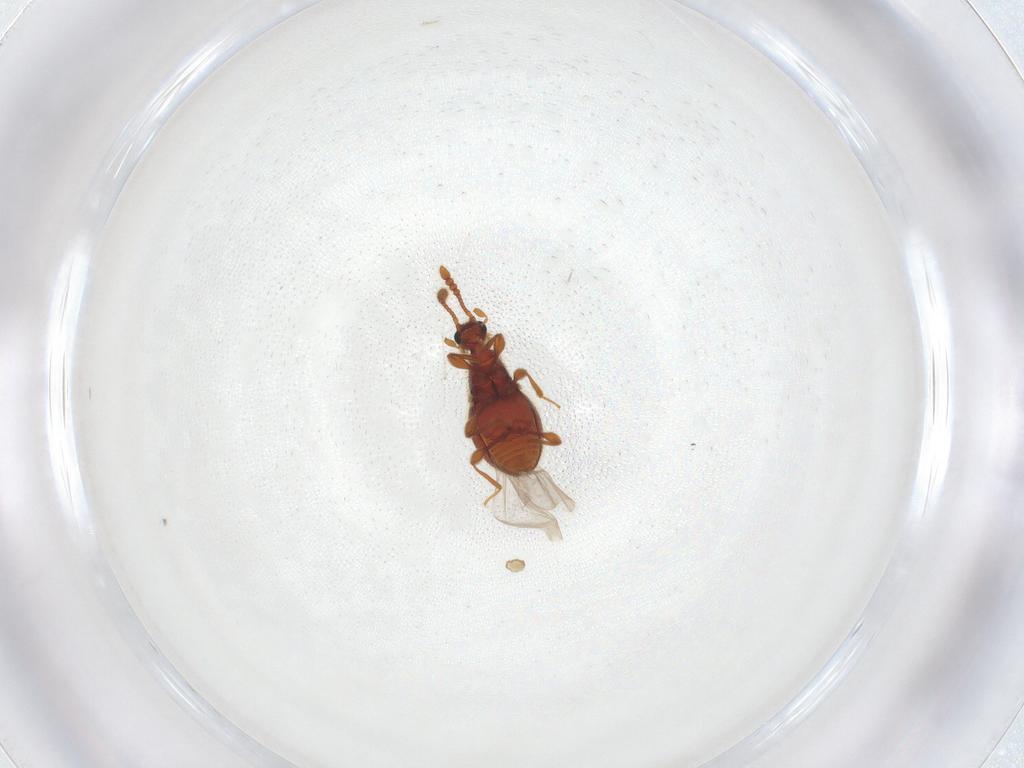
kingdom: Animalia
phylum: Arthropoda
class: Insecta
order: Coleoptera
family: Staphylinidae
